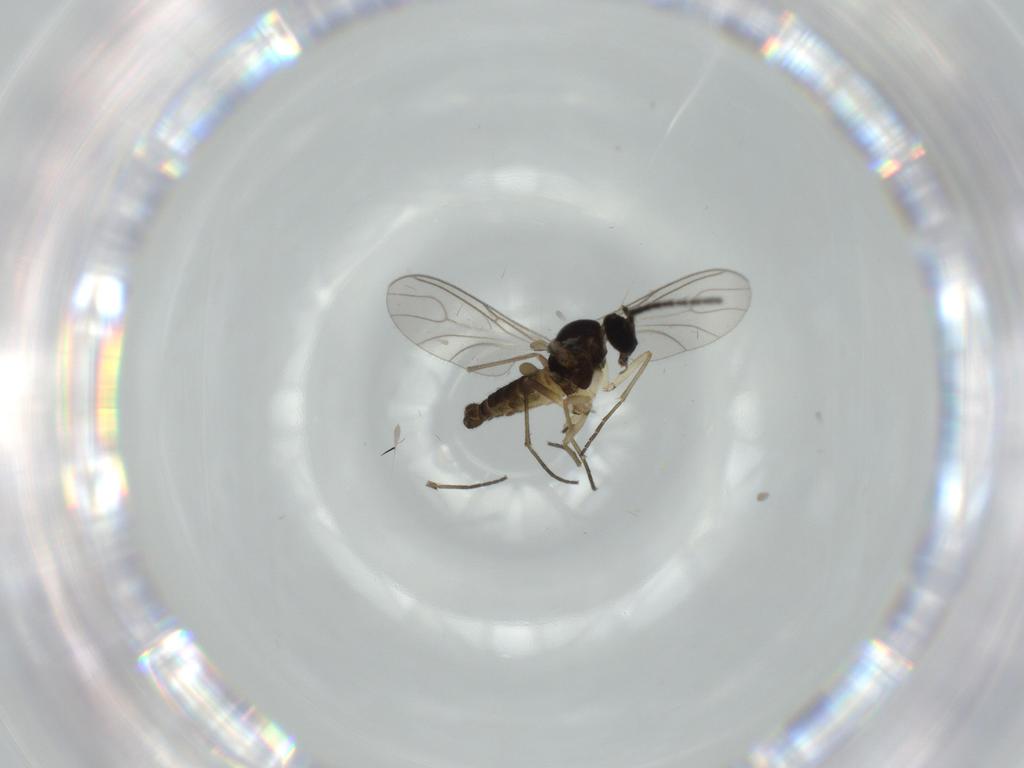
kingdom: Animalia
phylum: Arthropoda
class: Insecta
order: Diptera
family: Sciaridae
